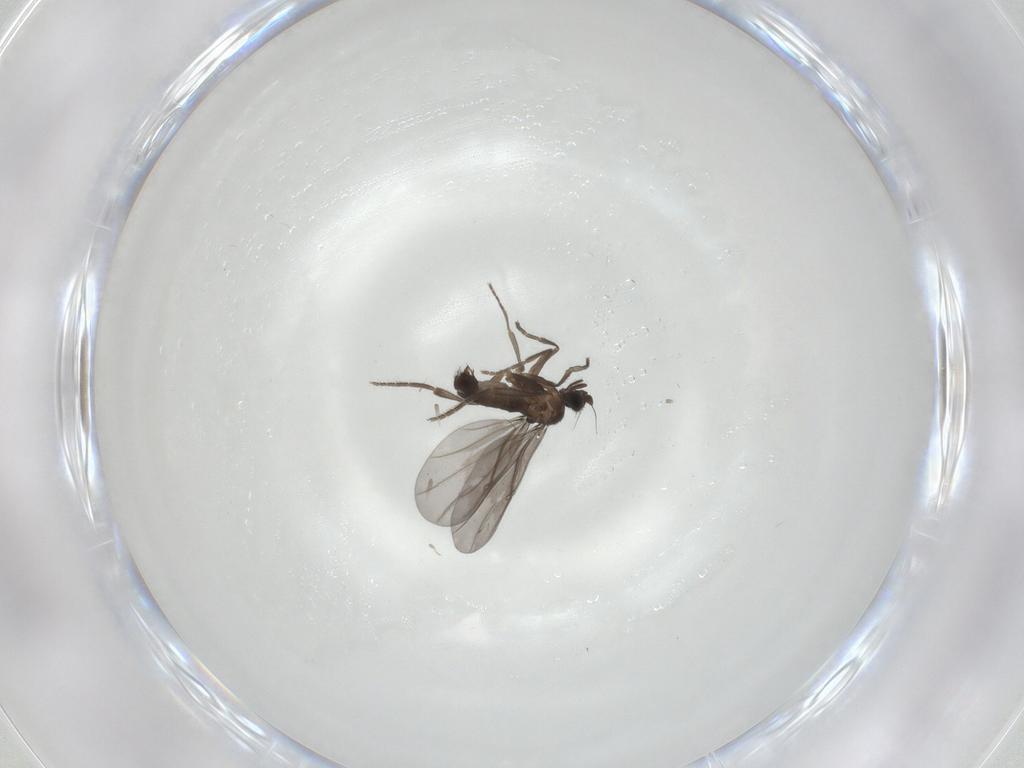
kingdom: Animalia
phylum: Arthropoda
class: Insecta
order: Diptera
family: Phoridae
